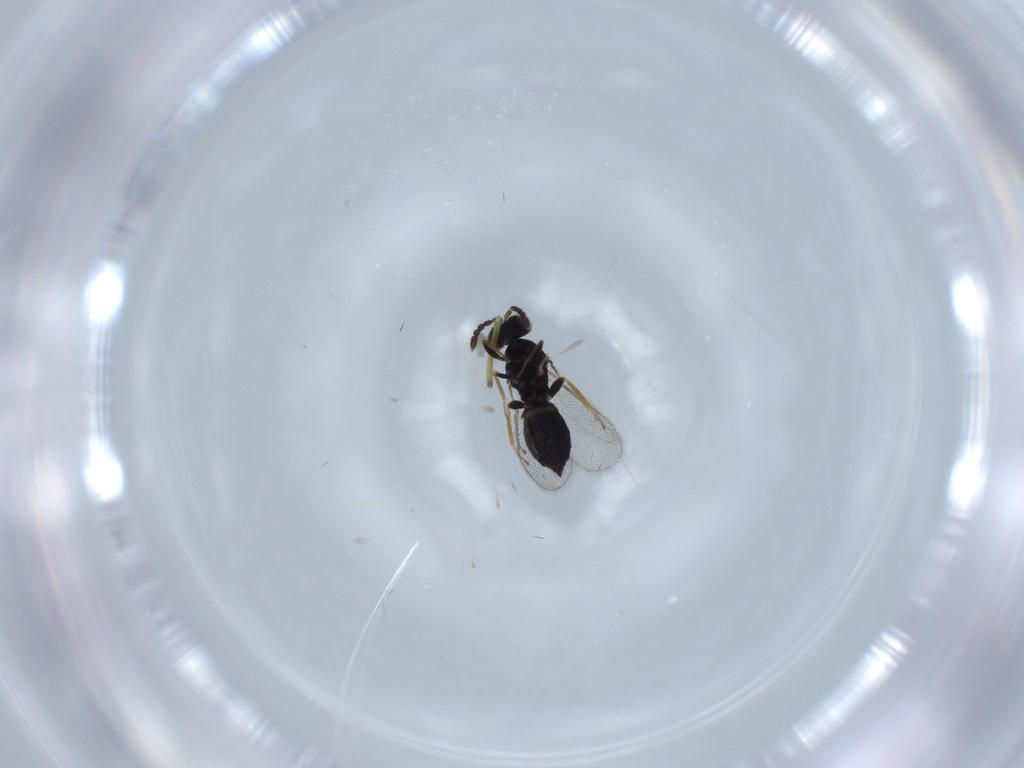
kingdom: Animalia
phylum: Arthropoda
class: Insecta
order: Hymenoptera
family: Eulophidae
